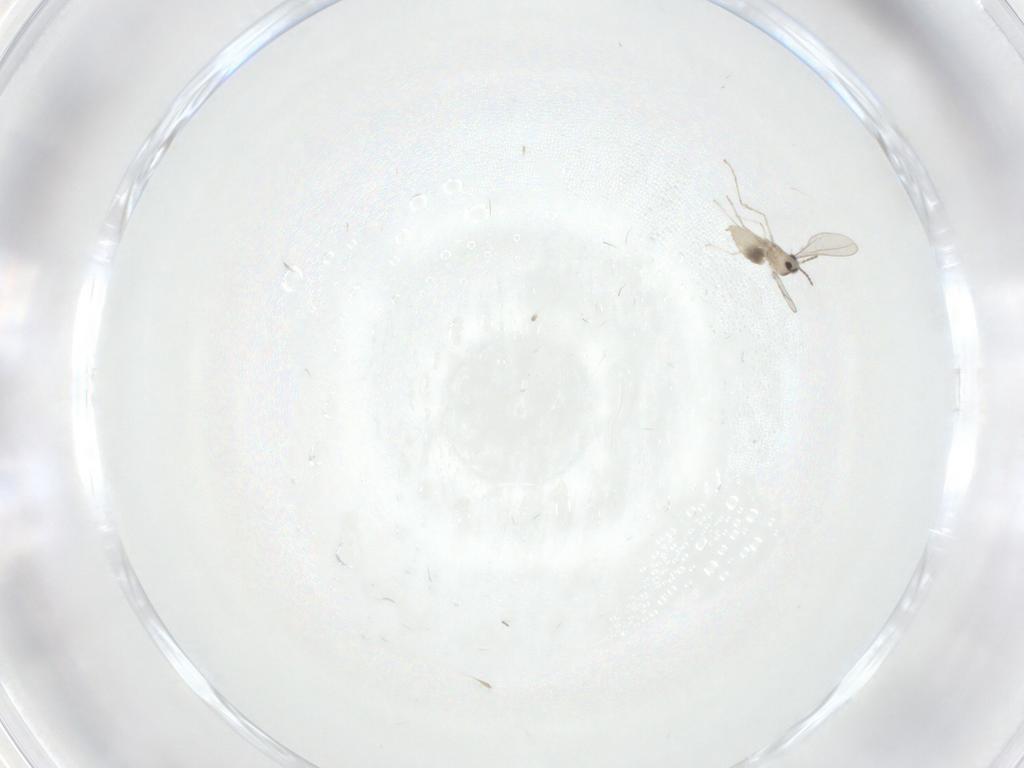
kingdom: Animalia
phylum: Arthropoda
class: Insecta
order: Diptera
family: Cecidomyiidae
